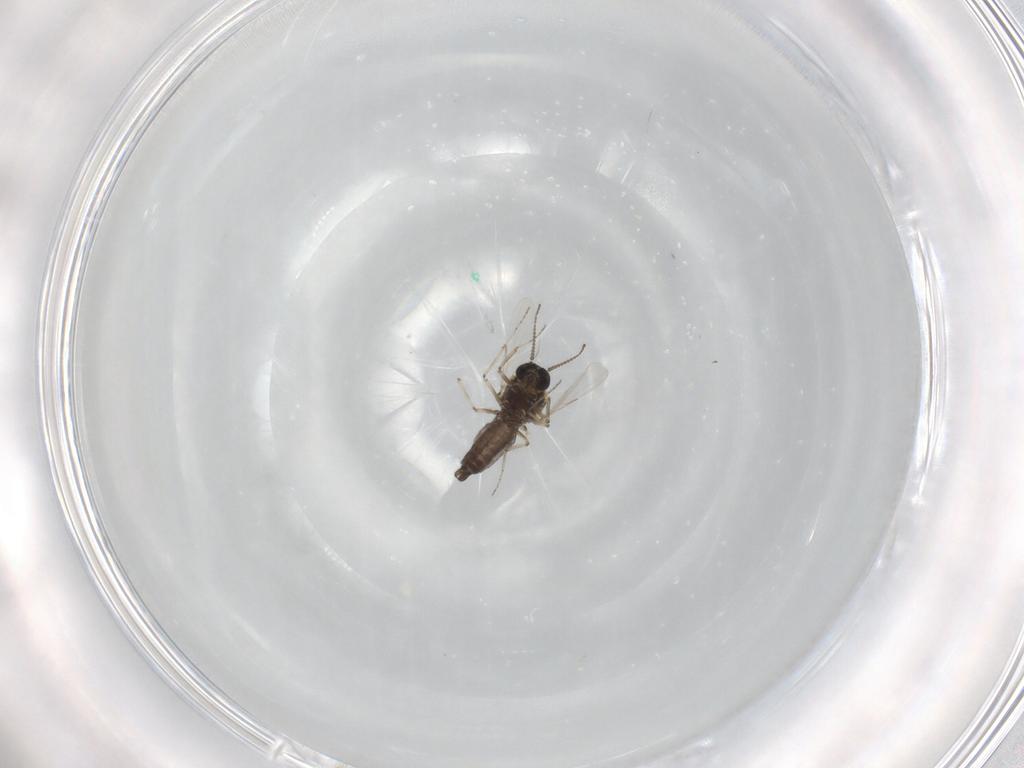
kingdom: Animalia
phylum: Arthropoda
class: Insecta
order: Diptera
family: Ceratopogonidae
